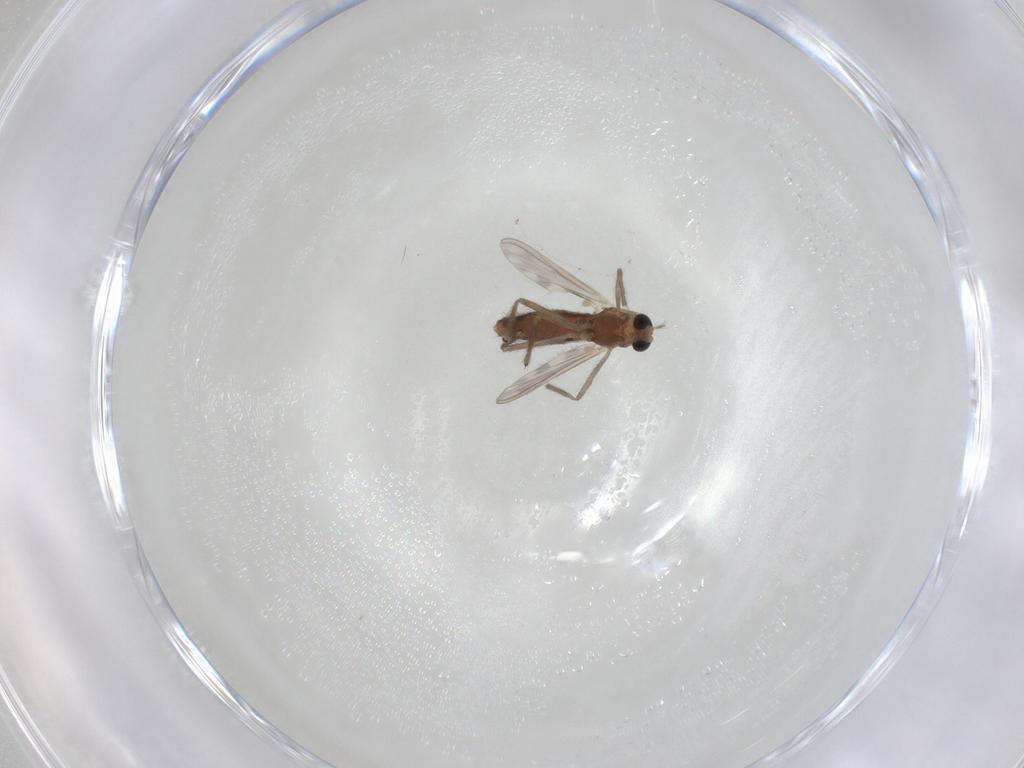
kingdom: Animalia
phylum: Arthropoda
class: Insecta
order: Diptera
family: Chironomidae
